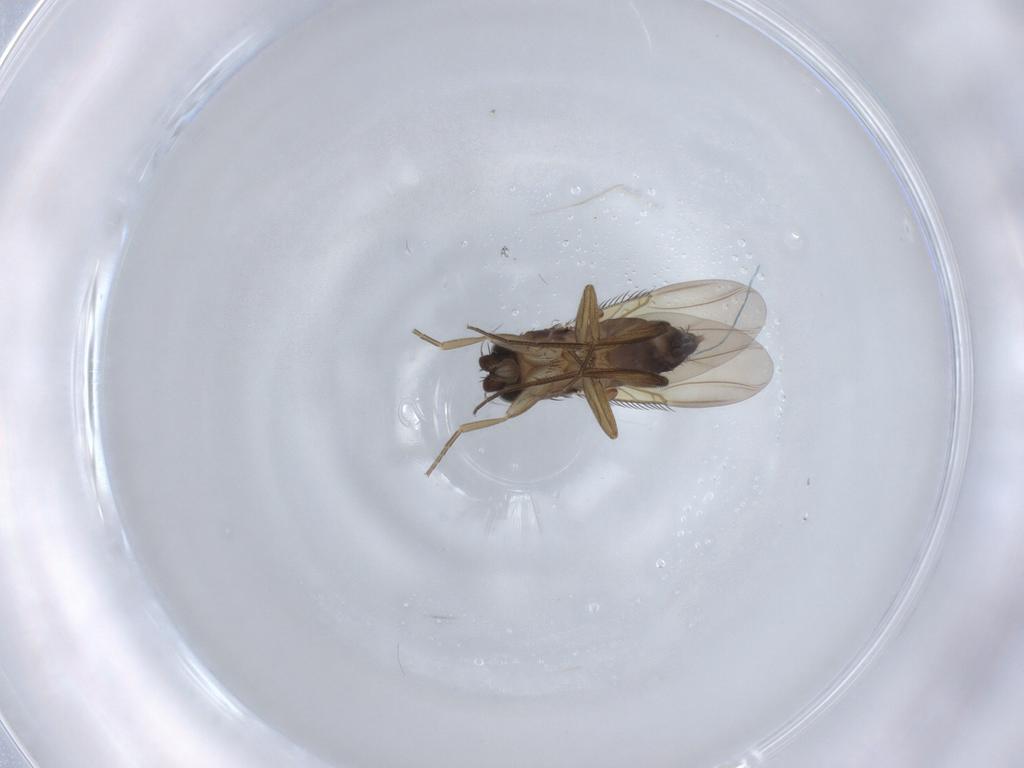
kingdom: Animalia
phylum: Arthropoda
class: Insecta
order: Diptera
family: Phoridae
